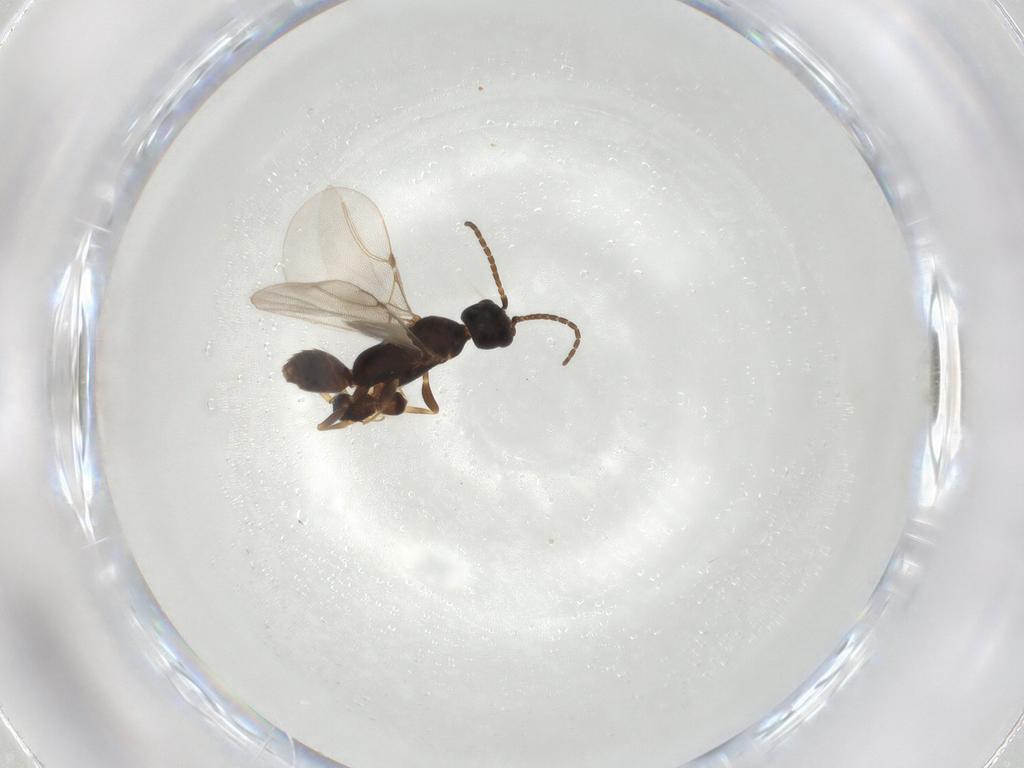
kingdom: Animalia
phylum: Arthropoda
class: Insecta
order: Hymenoptera
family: Scelionidae
